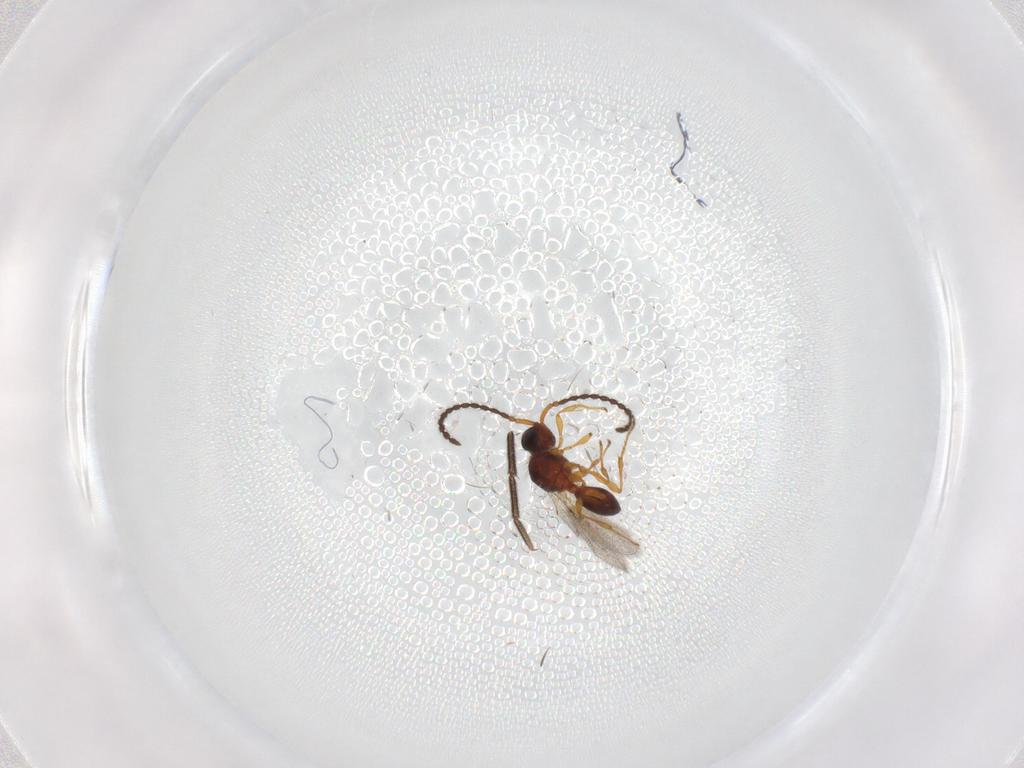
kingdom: Animalia
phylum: Arthropoda
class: Insecta
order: Hymenoptera
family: Diapriidae
